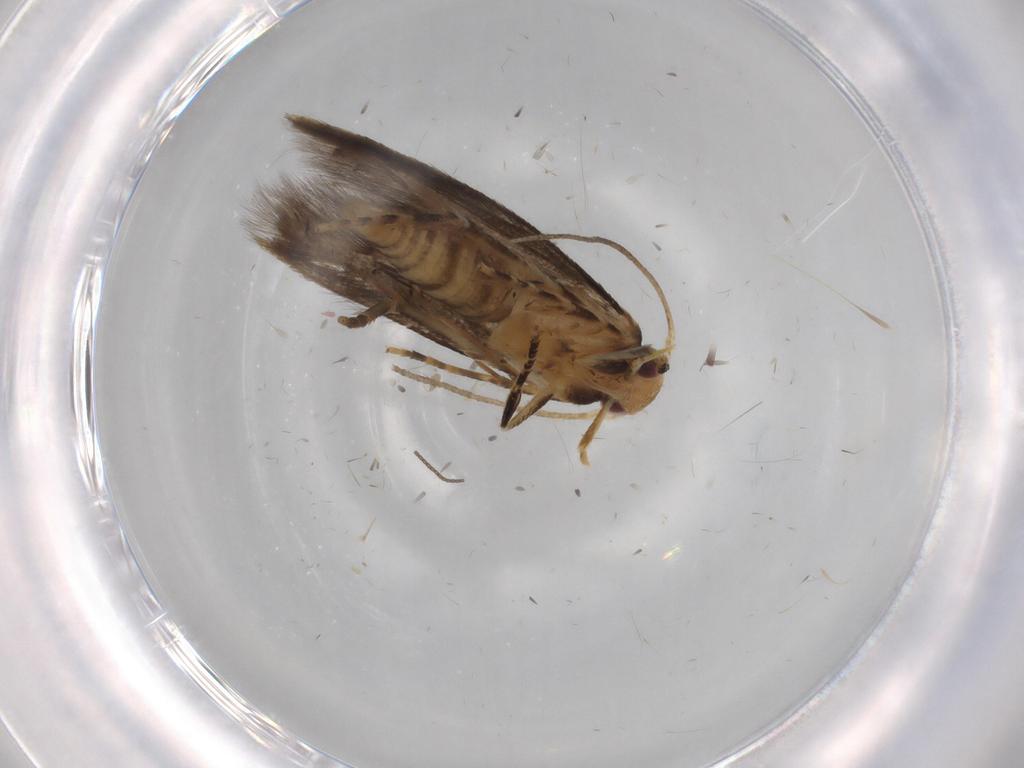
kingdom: Animalia
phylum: Arthropoda
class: Insecta
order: Lepidoptera
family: Momphidae
